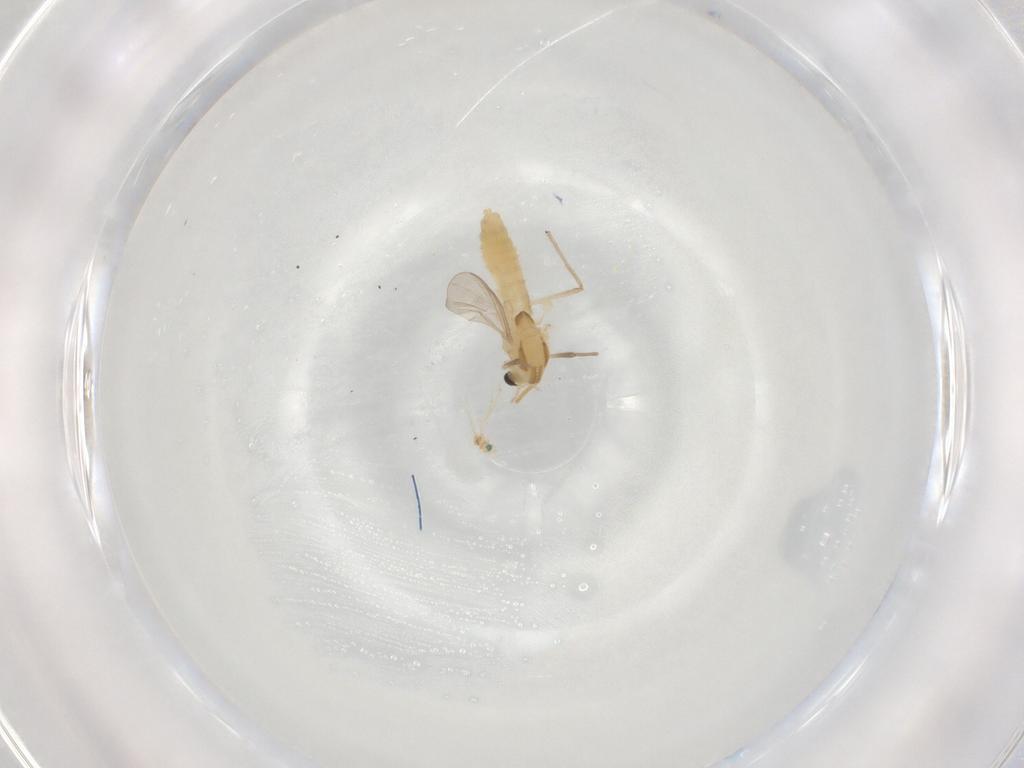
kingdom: Animalia
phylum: Arthropoda
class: Insecta
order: Diptera
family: Chironomidae
